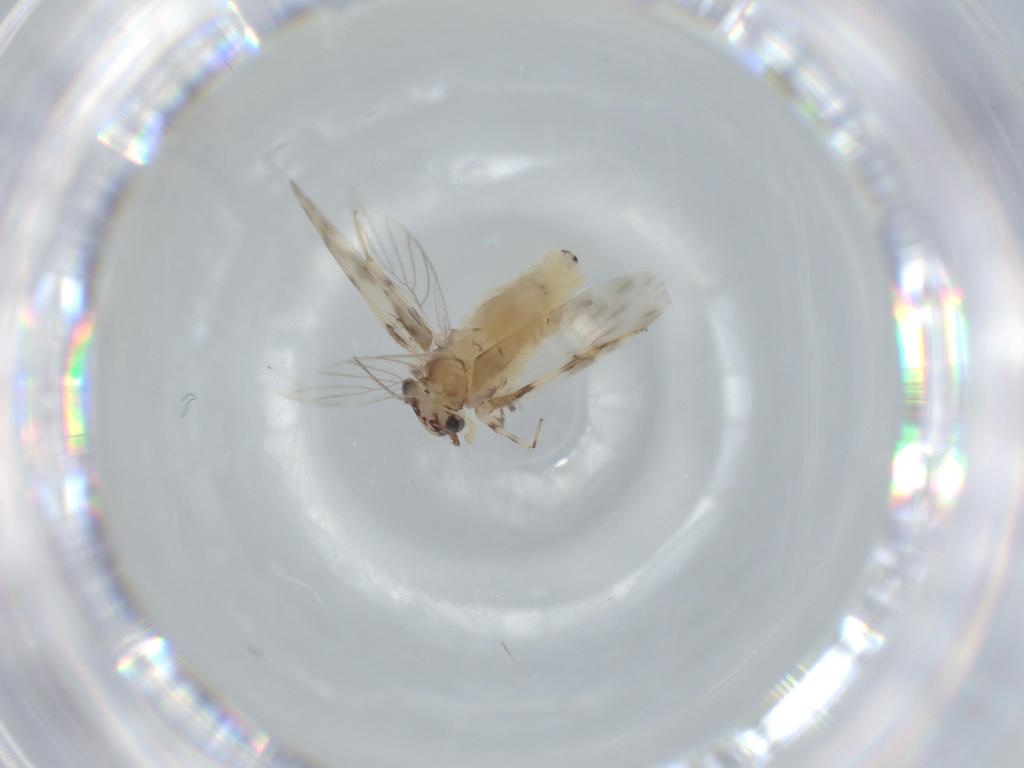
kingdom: Animalia
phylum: Arthropoda
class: Insecta
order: Psocodea
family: Lepidopsocidae
